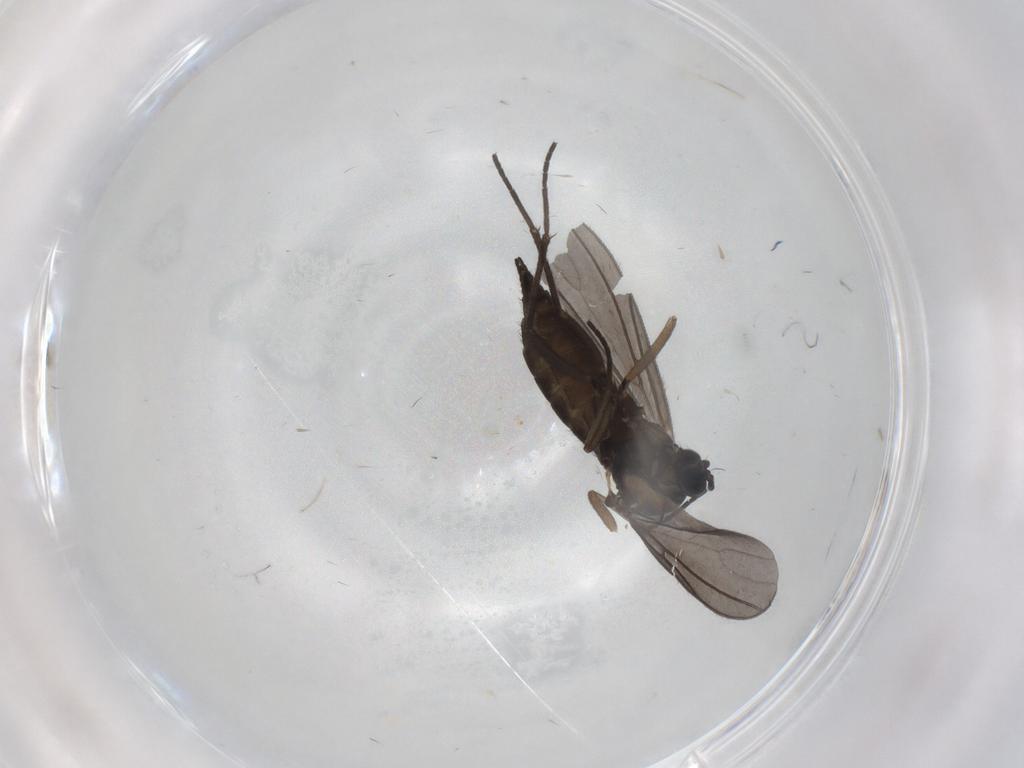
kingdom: Animalia
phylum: Arthropoda
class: Insecta
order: Diptera
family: Sciaridae
